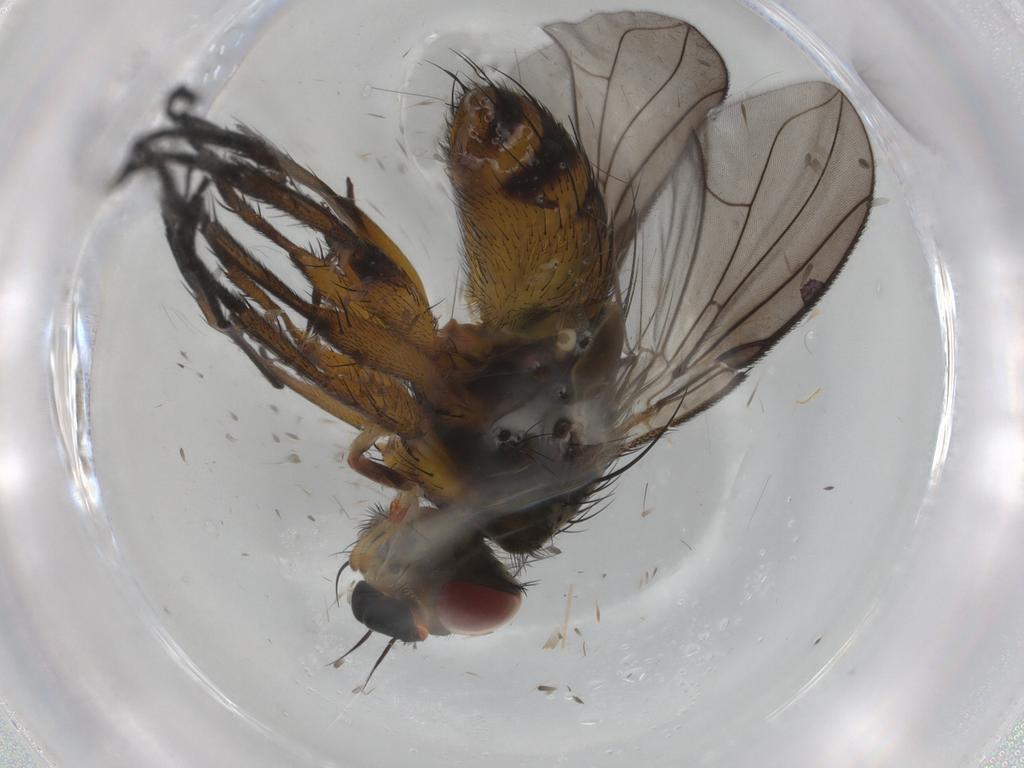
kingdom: Animalia
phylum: Arthropoda
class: Insecta
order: Diptera
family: Tachinidae
